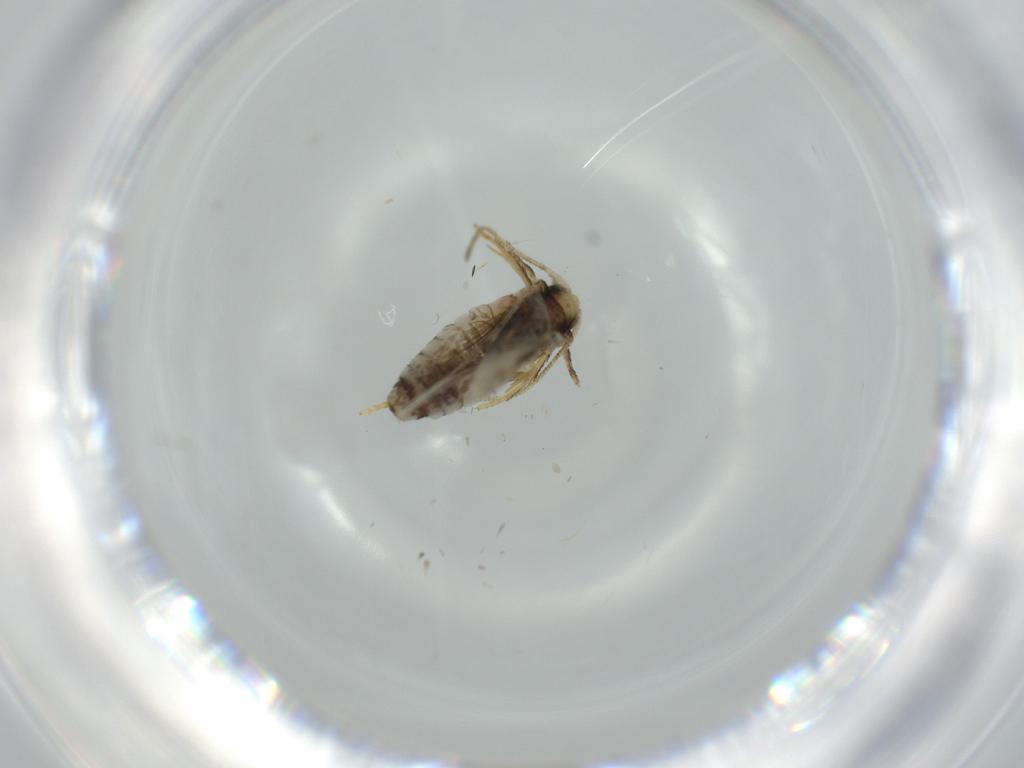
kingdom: Animalia
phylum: Arthropoda
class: Insecta
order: Lepidoptera
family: Nepticulidae
